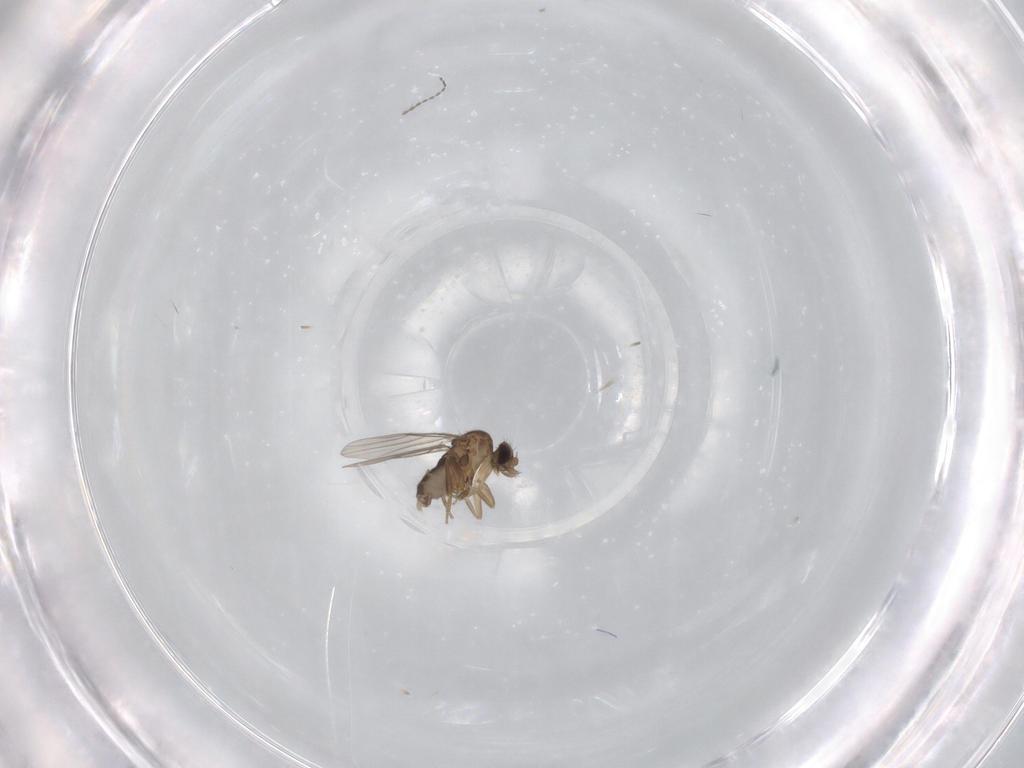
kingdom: Animalia
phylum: Arthropoda
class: Insecta
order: Diptera
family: Phoridae
